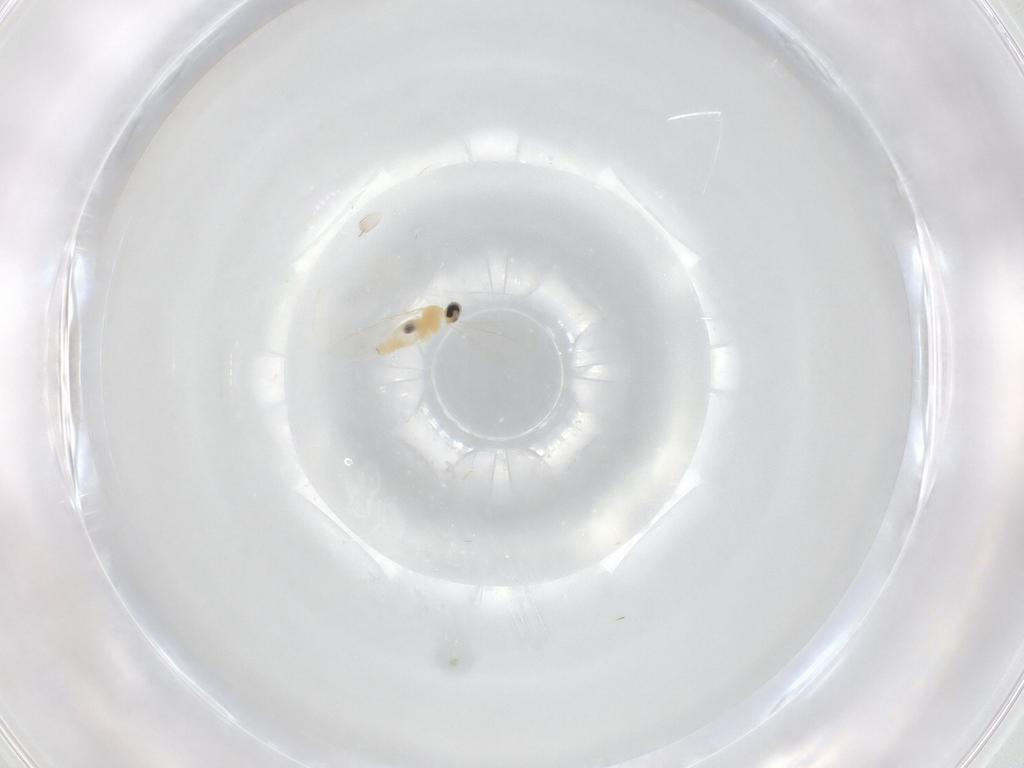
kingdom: Animalia
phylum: Arthropoda
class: Insecta
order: Diptera
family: Cecidomyiidae
